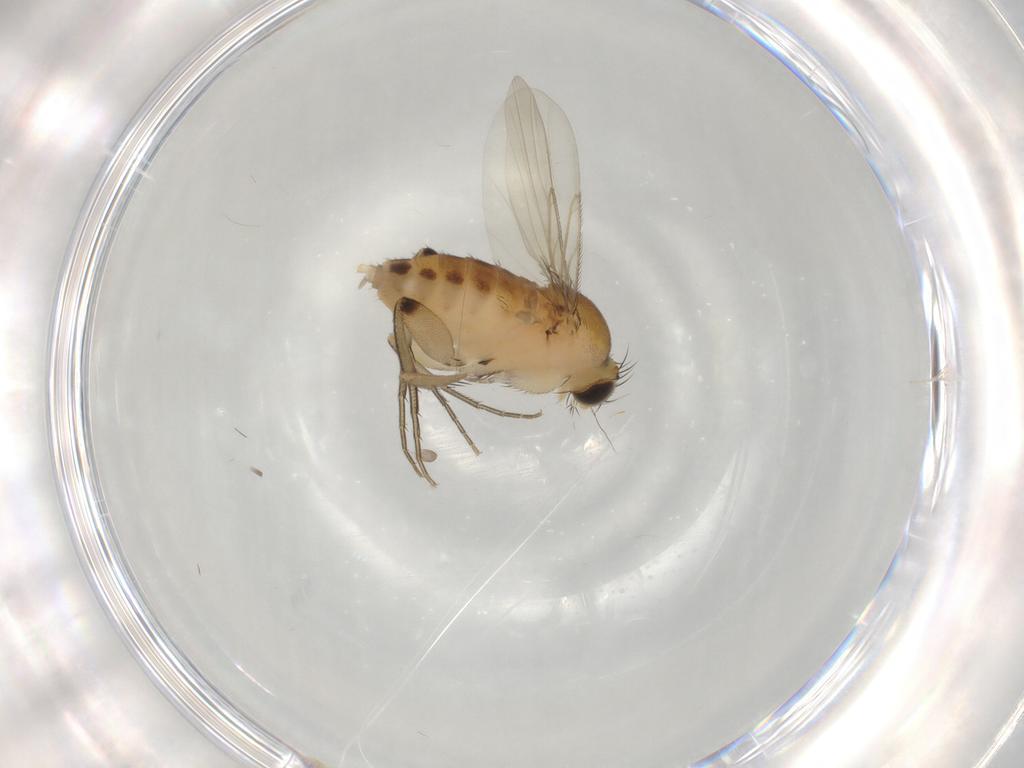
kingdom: Animalia
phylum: Arthropoda
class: Insecta
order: Diptera
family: Phoridae
